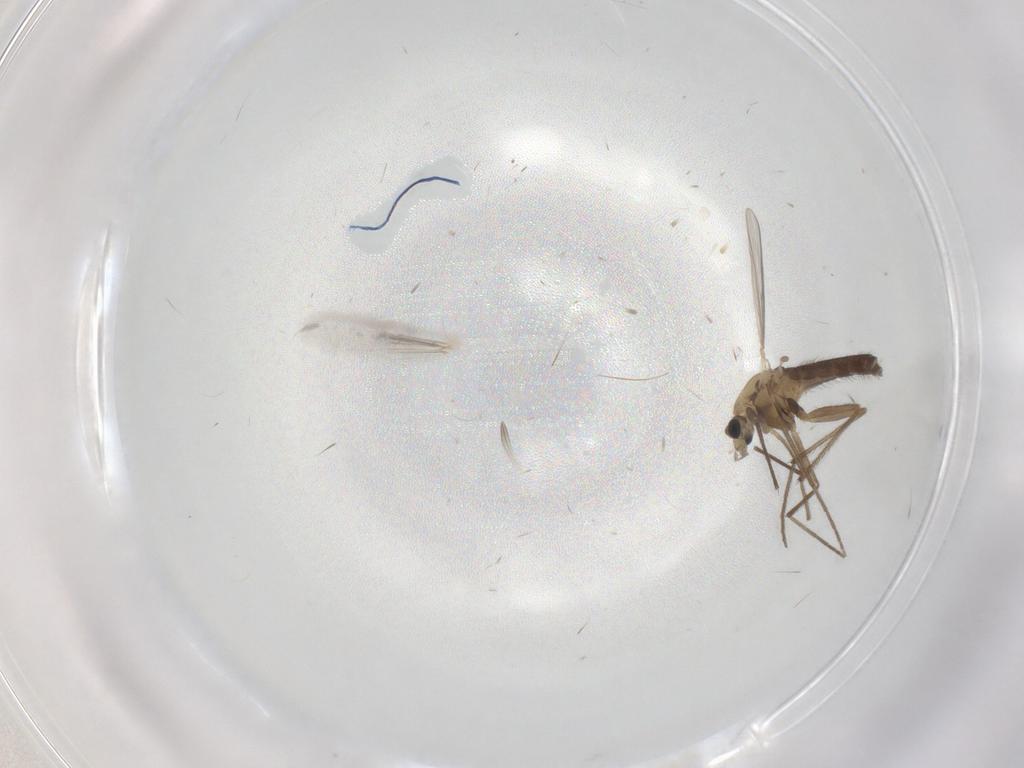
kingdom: Animalia
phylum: Arthropoda
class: Insecta
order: Diptera
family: Chironomidae
